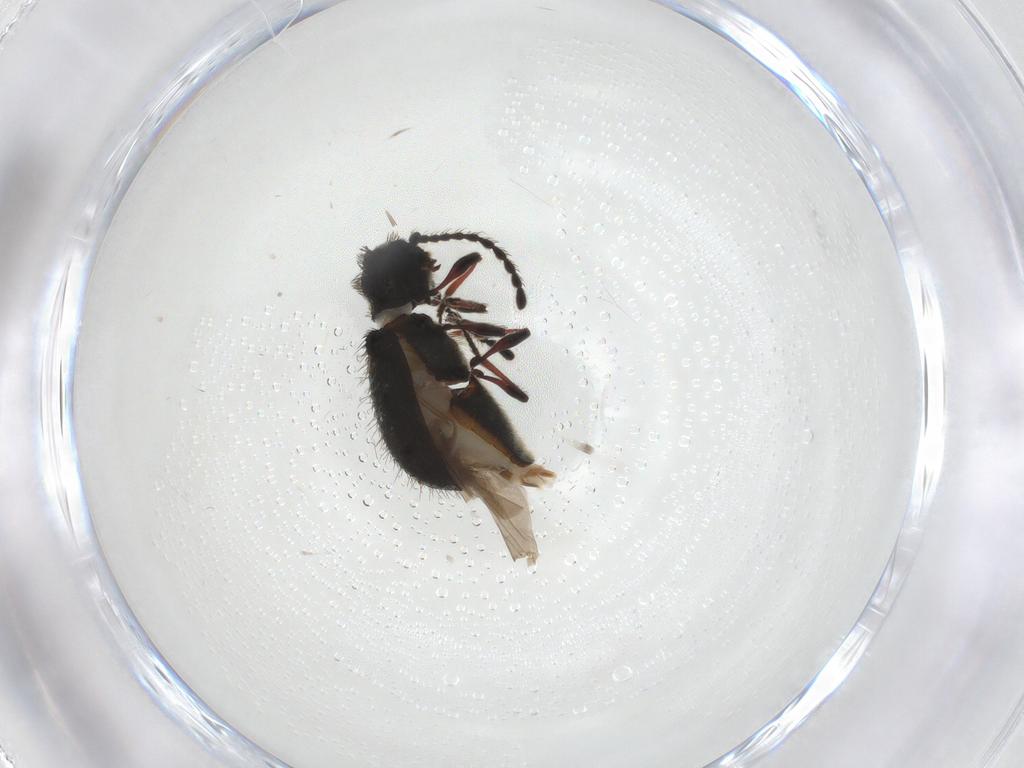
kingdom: Animalia
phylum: Arthropoda
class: Insecta
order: Coleoptera
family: Ptinidae
